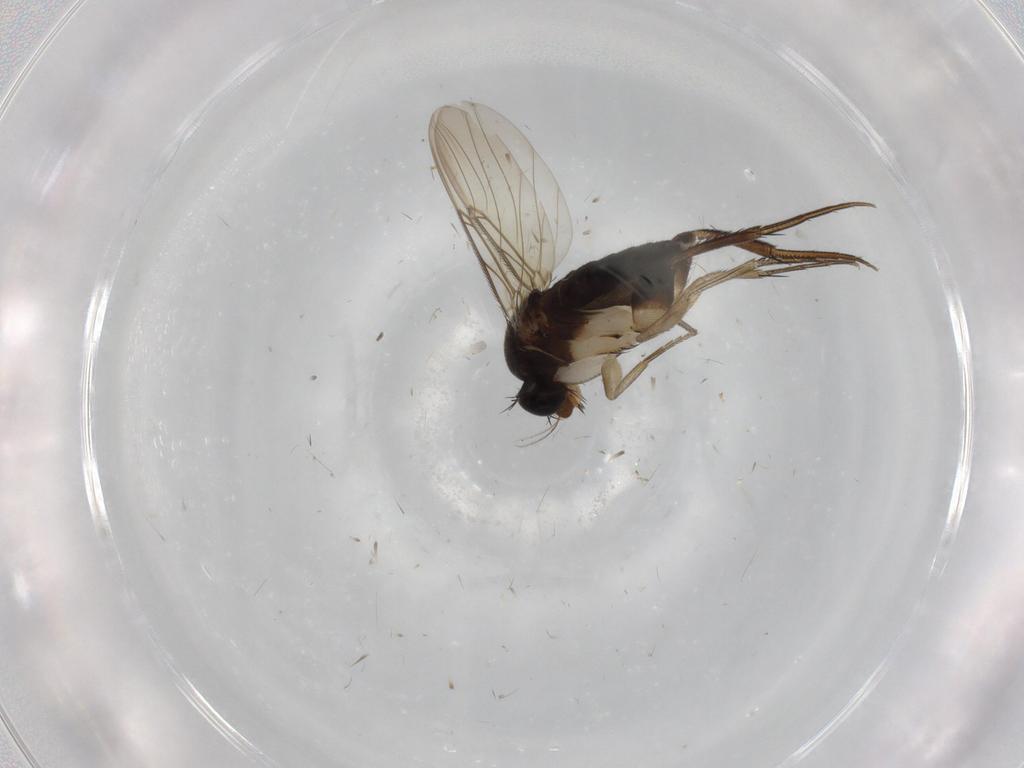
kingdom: Animalia
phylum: Arthropoda
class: Insecta
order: Diptera
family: Phoridae
